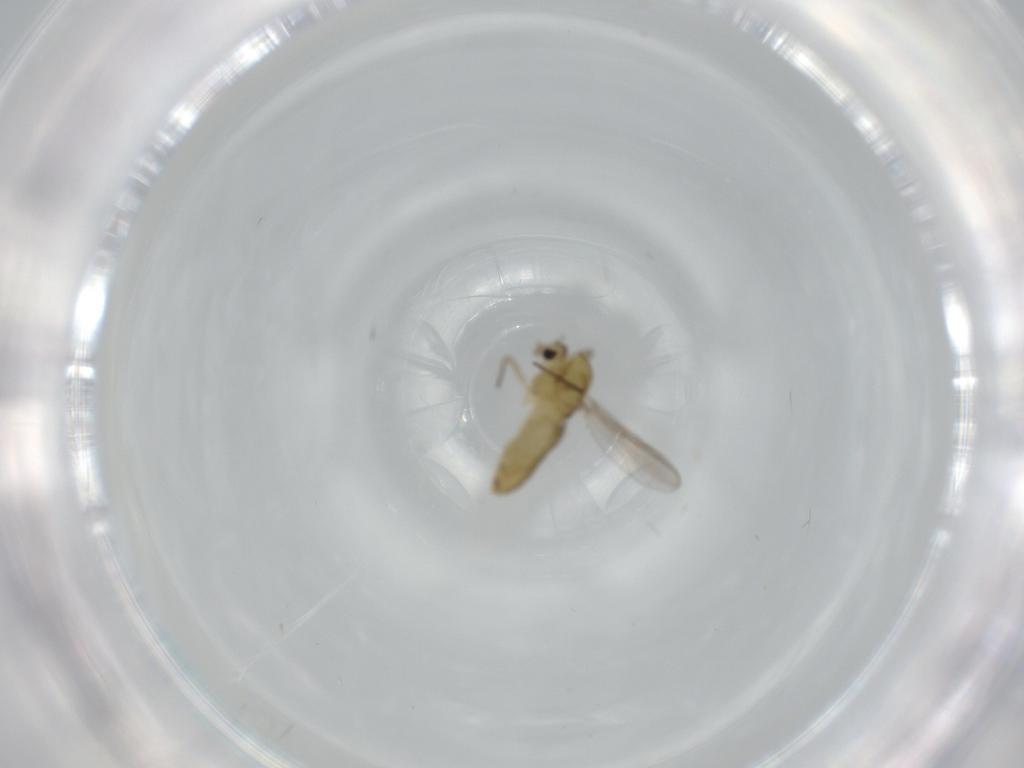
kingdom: Animalia
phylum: Arthropoda
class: Insecta
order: Diptera
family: Chironomidae
